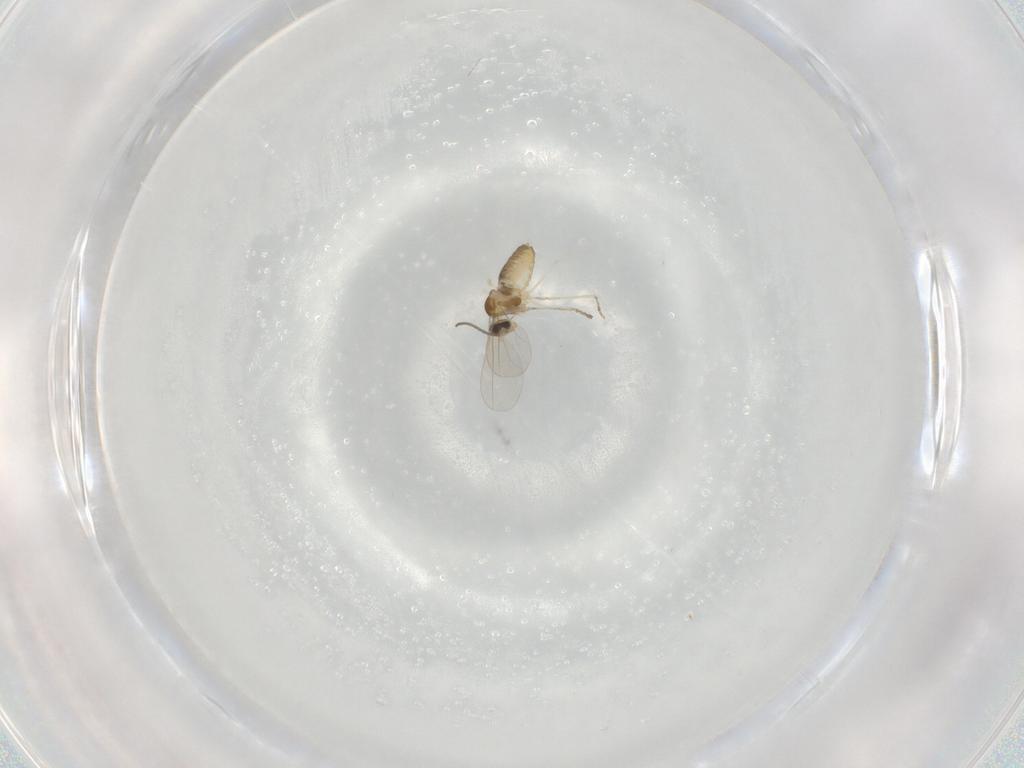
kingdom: Animalia
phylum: Arthropoda
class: Insecta
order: Diptera
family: Cecidomyiidae
